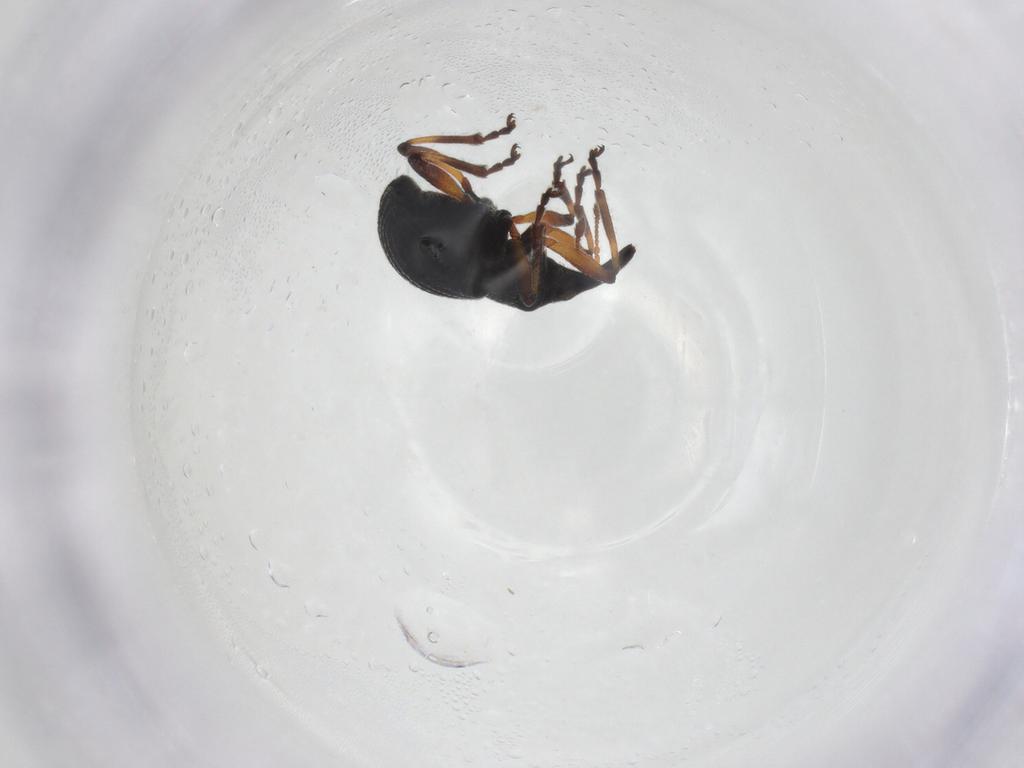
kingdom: Animalia
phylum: Arthropoda
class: Insecta
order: Coleoptera
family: Brentidae
